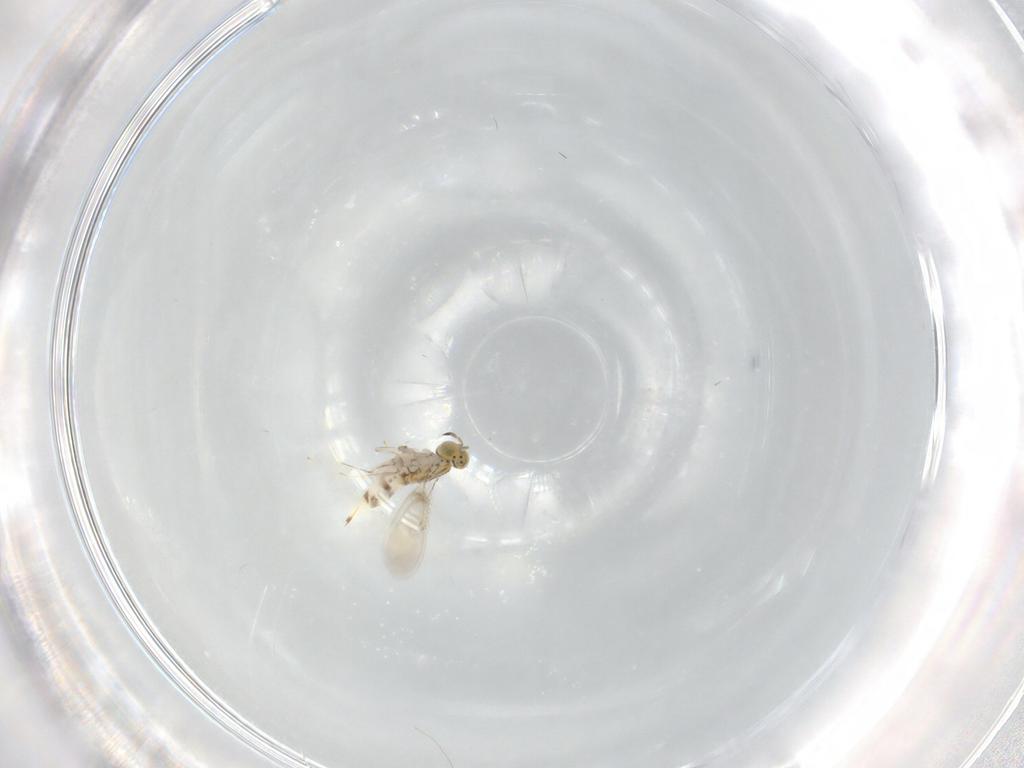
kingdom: Animalia
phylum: Arthropoda
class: Insecta
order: Hymenoptera
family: Aphelinidae
